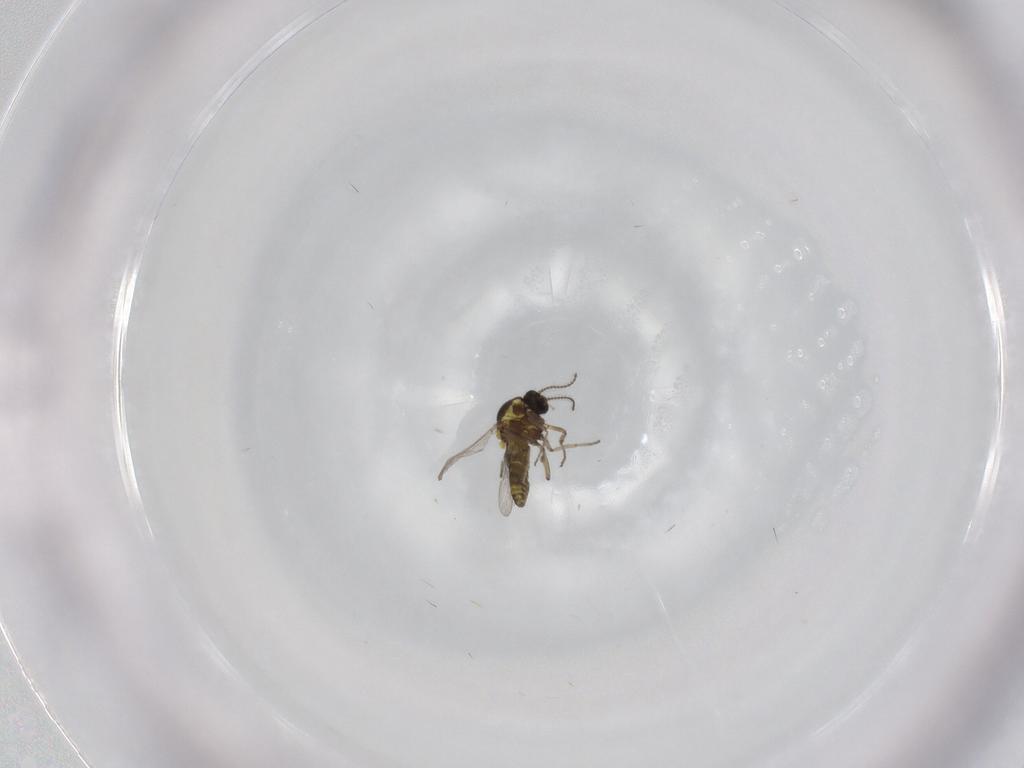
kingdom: Animalia
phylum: Arthropoda
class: Insecta
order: Diptera
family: Ceratopogonidae
